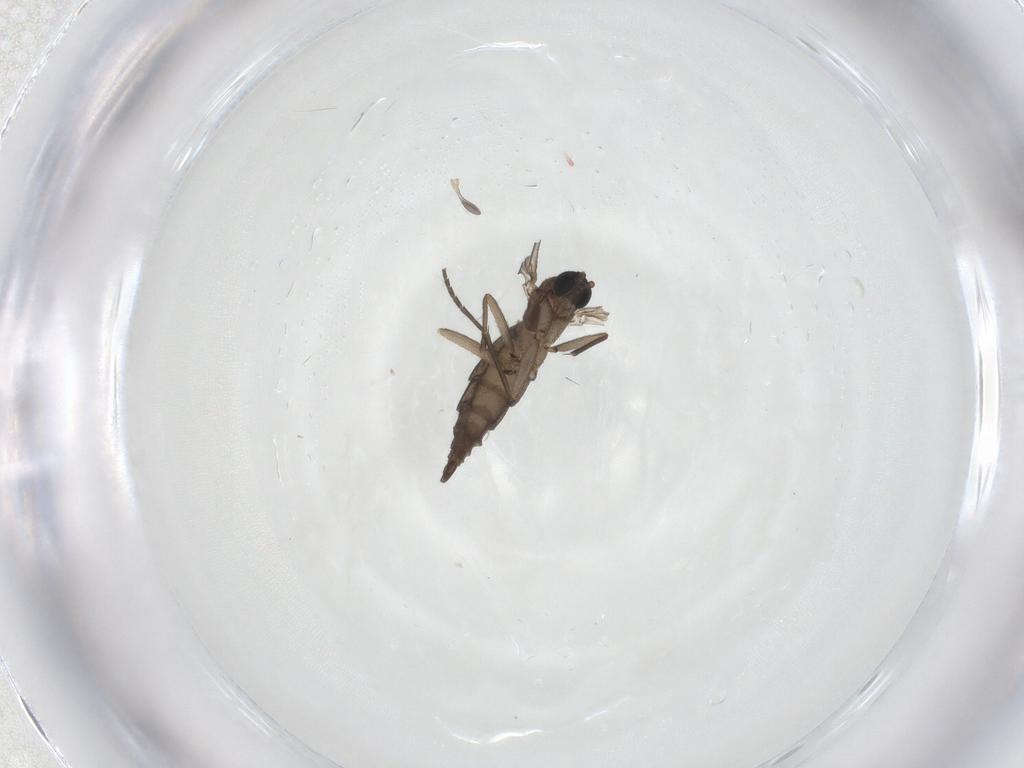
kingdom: Animalia
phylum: Arthropoda
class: Insecta
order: Diptera
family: Sciaridae
